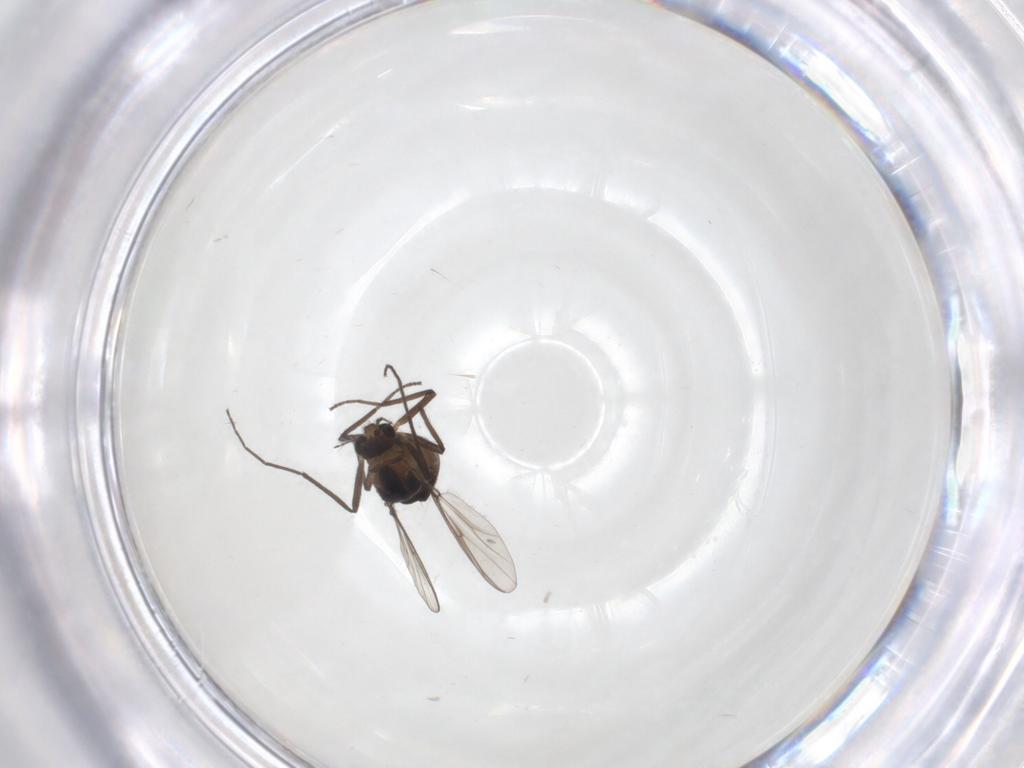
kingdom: Animalia
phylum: Arthropoda
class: Insecta
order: Diptera
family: Chironomidae
